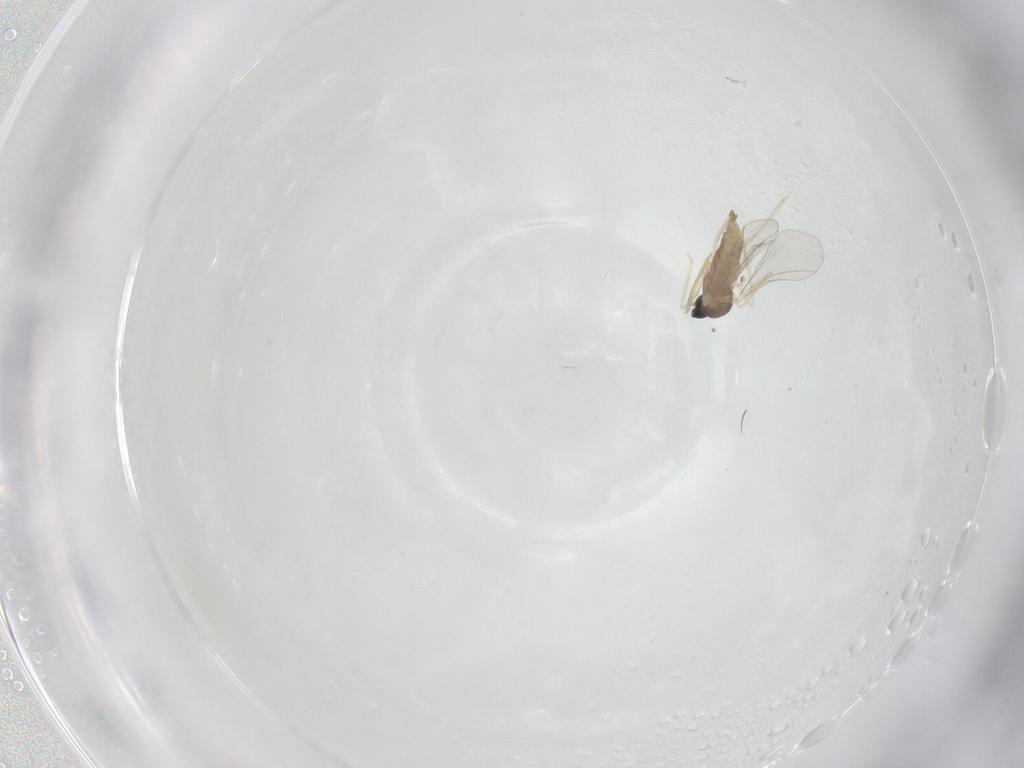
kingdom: Animalia
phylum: Arthropoda
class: Insecta
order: Diptera
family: Cecidomyiidae
